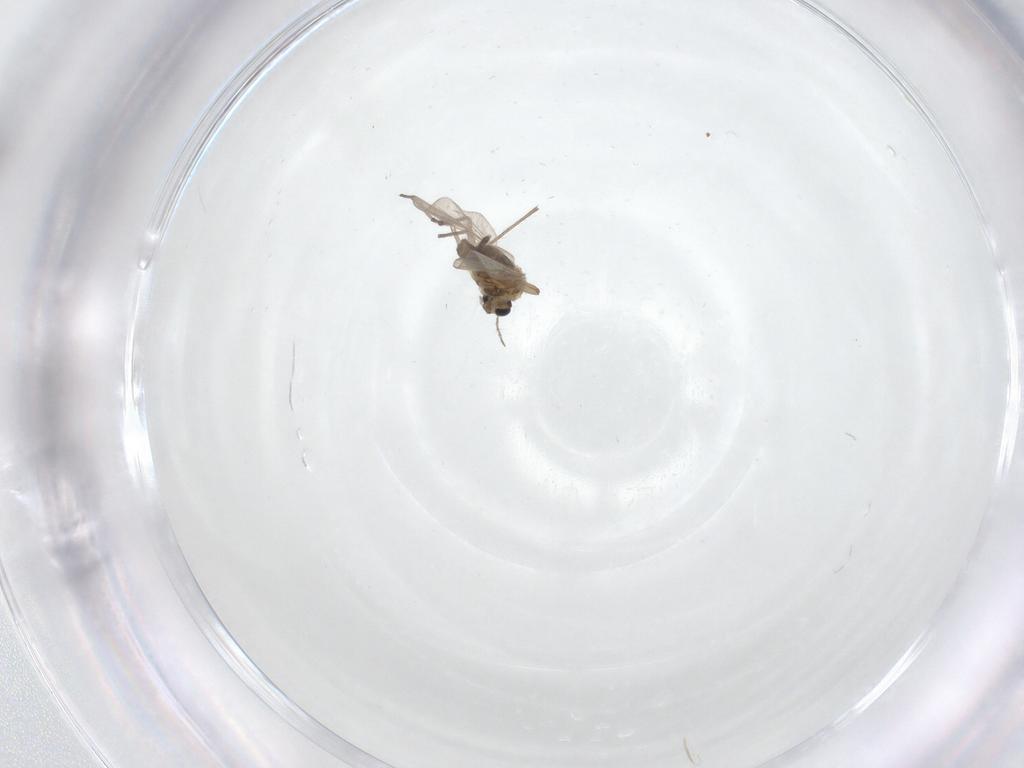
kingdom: Animalia
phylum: Arthropoda
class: Insecta
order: Diptera
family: Chironomidae
